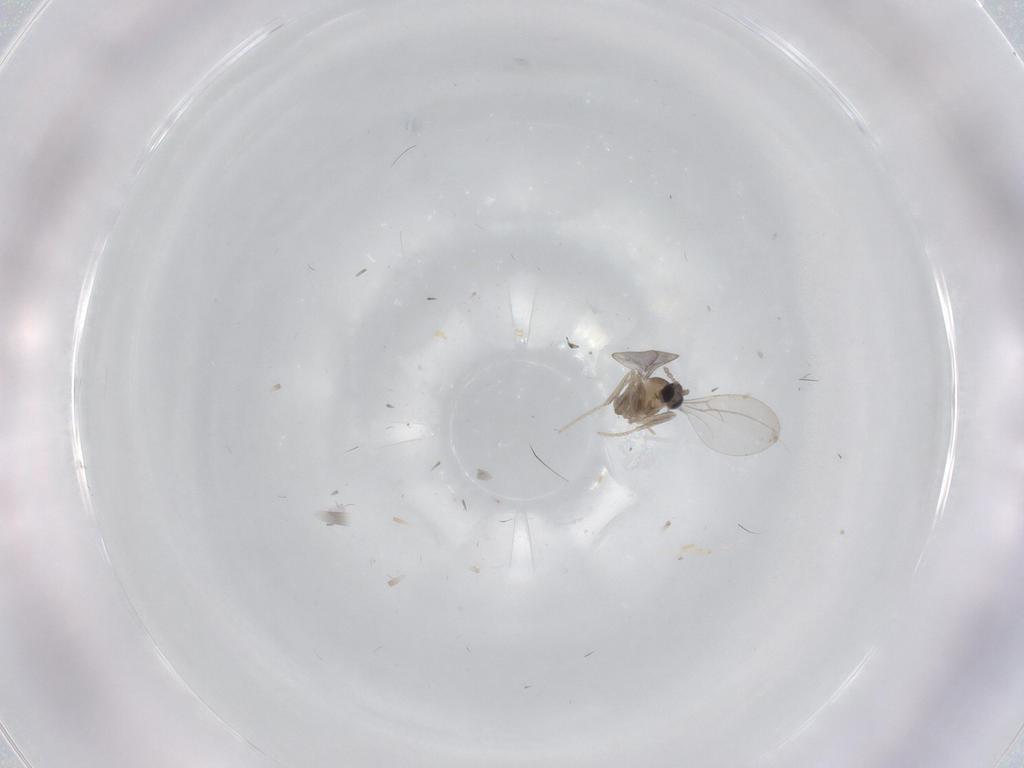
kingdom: Animalia
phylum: Arthropoda
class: Insecta
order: Diptera
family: Cecidomyiidae
